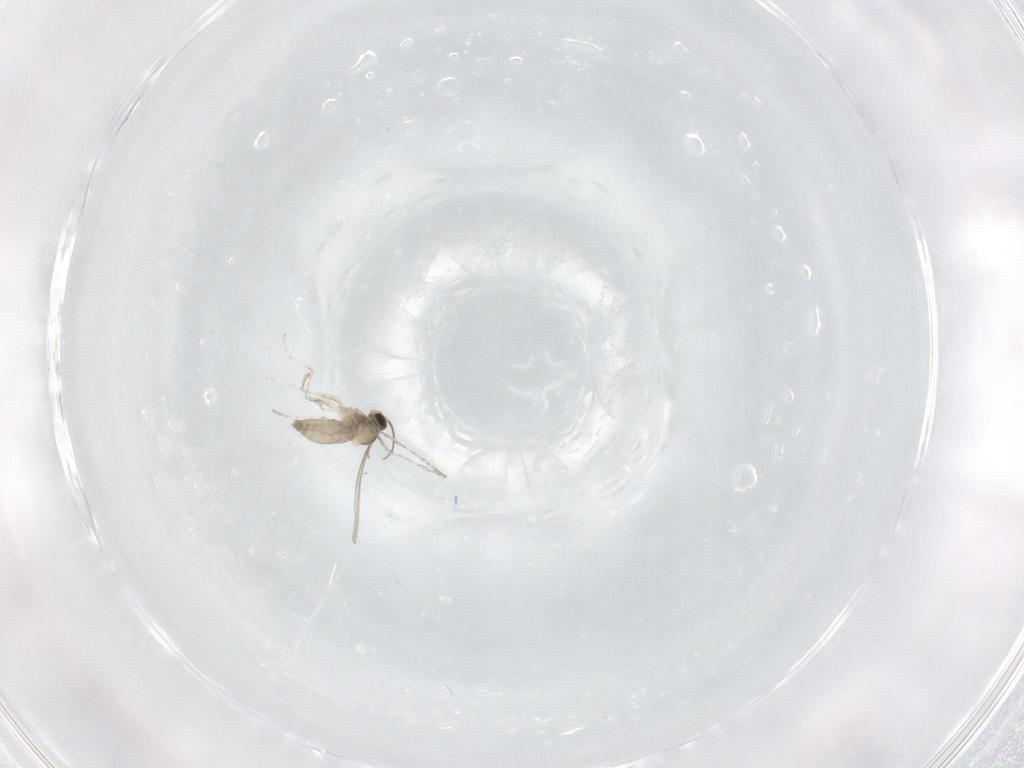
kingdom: Animalia
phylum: Arthropoda
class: Insecta
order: Diptera
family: Cecidomyiidae
